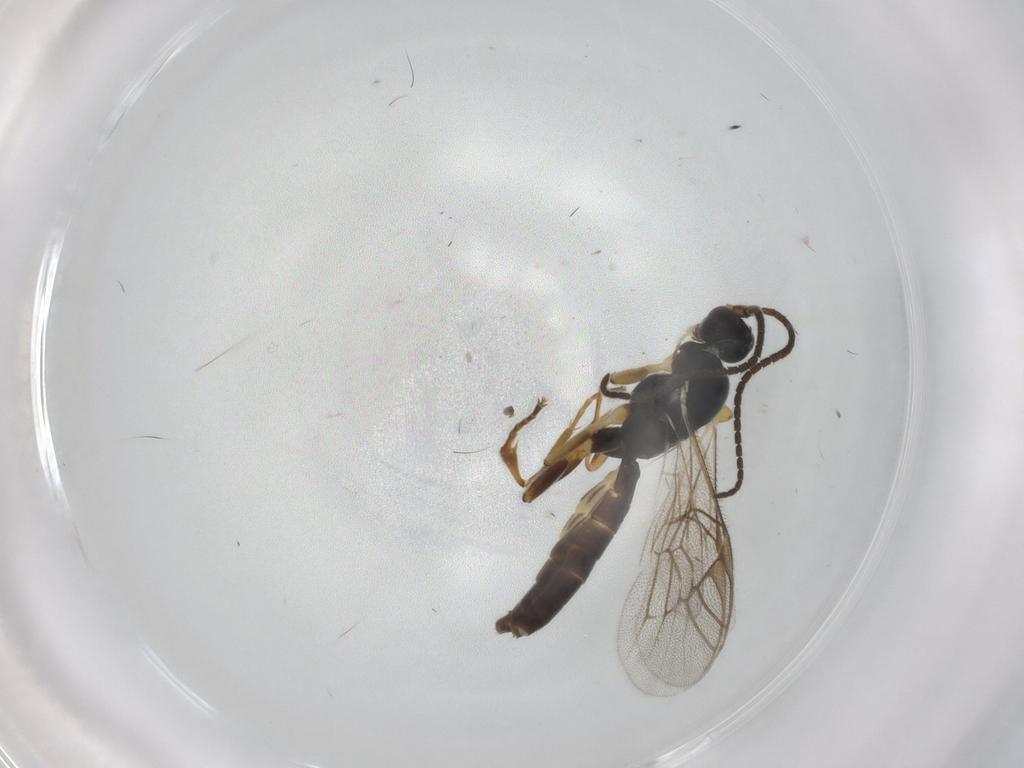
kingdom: Animalia
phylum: Arthropoda
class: Insecta
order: Hymenoptera
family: Ichneumonidae
